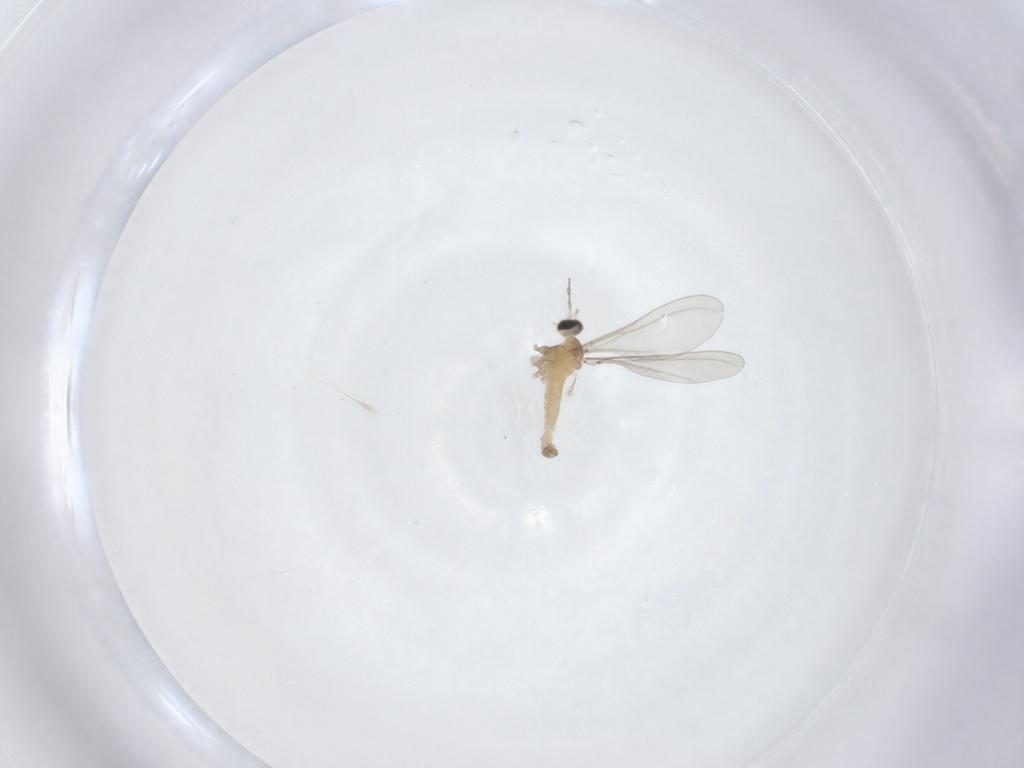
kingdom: Animalia
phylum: Arthropoda
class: Insecta
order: Diptera
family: Cecidomyiidae
